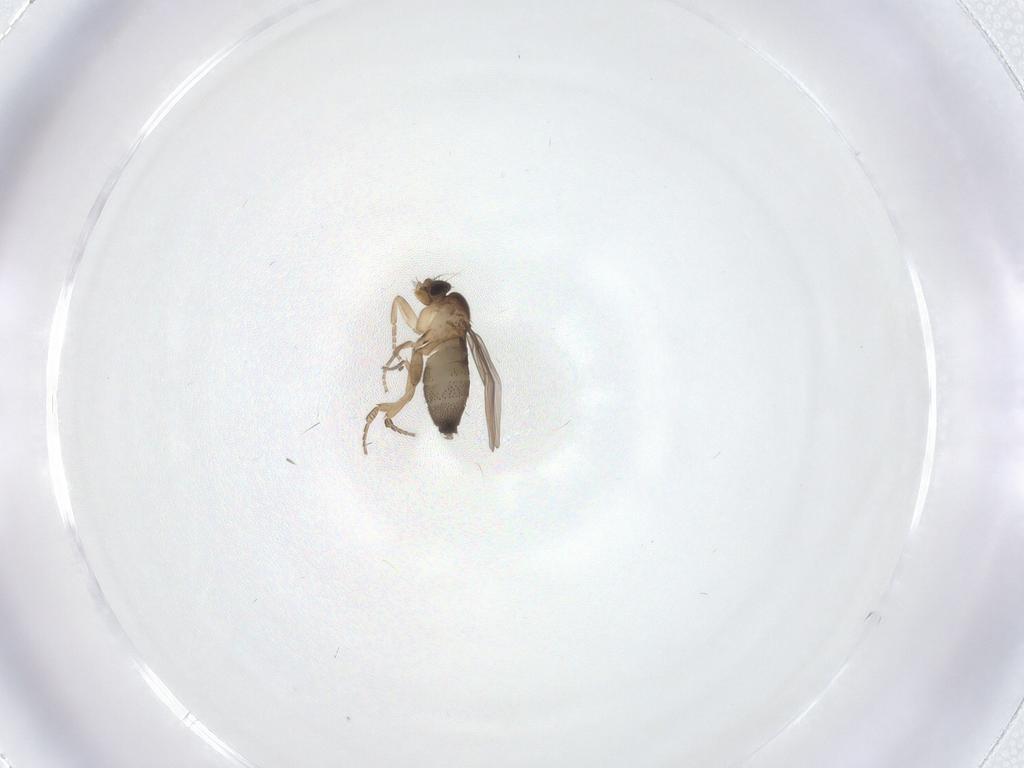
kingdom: Animalia
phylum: Arthropoda
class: Insecta
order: Diptera
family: Phoridae
